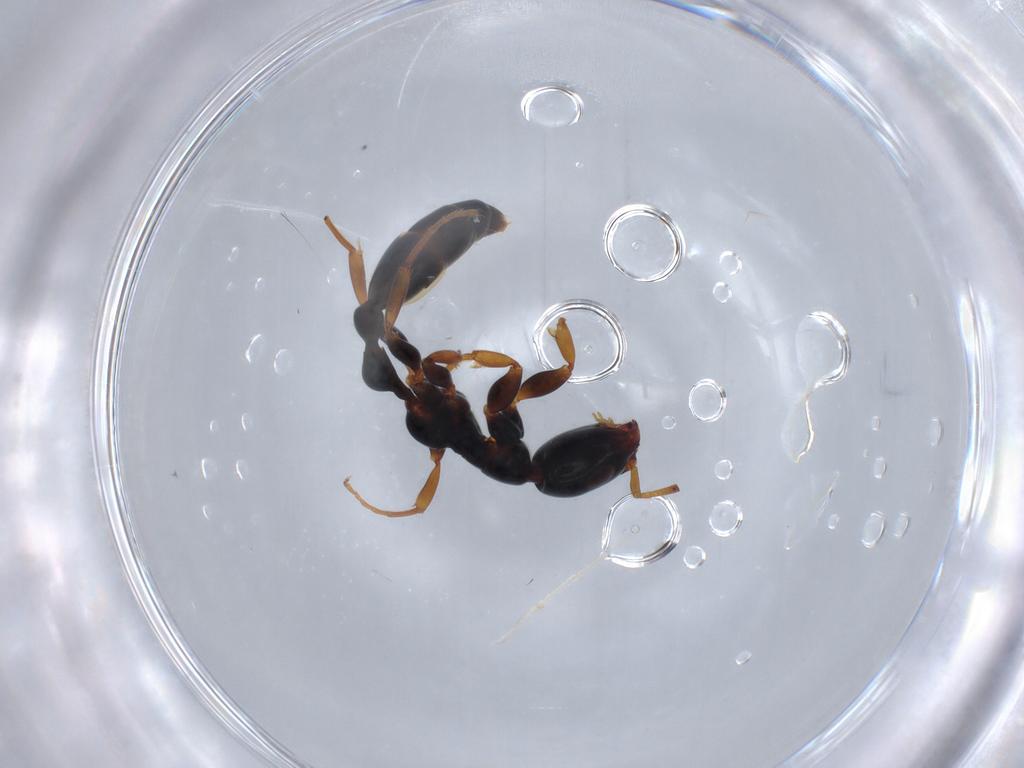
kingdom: Animalia
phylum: Arthropoda
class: Insecta
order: Hymenoptera
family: Formicidae
